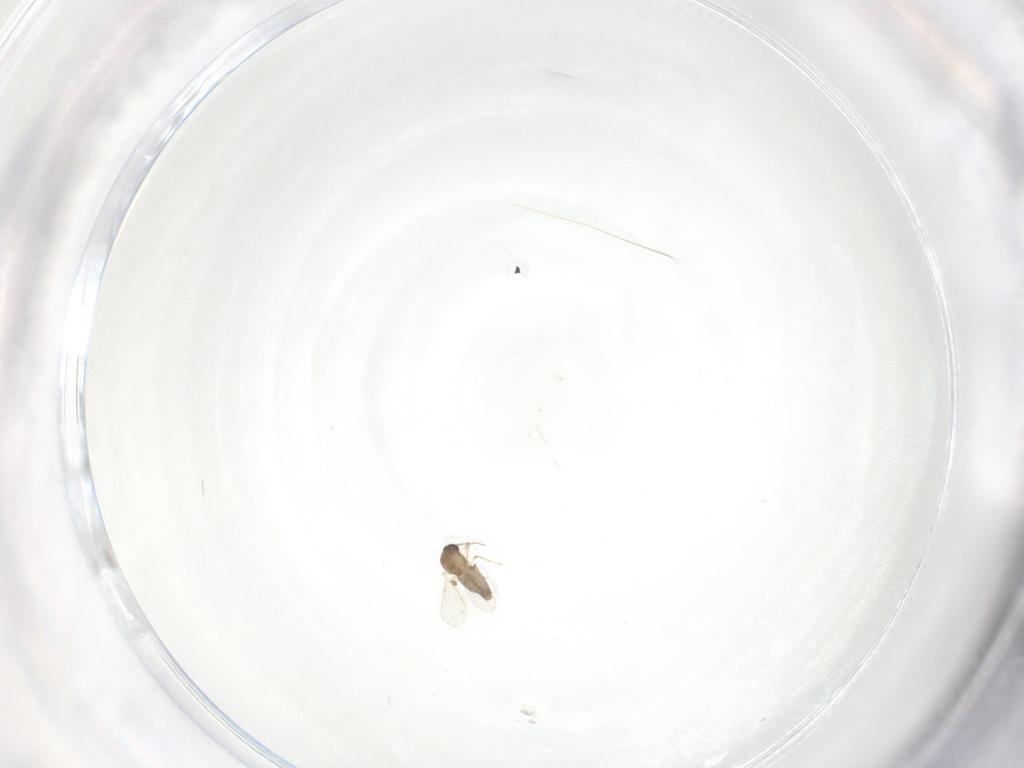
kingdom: Animalia
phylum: Arthropoda
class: Insecta
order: Diptera
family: Ceratopogonidae
